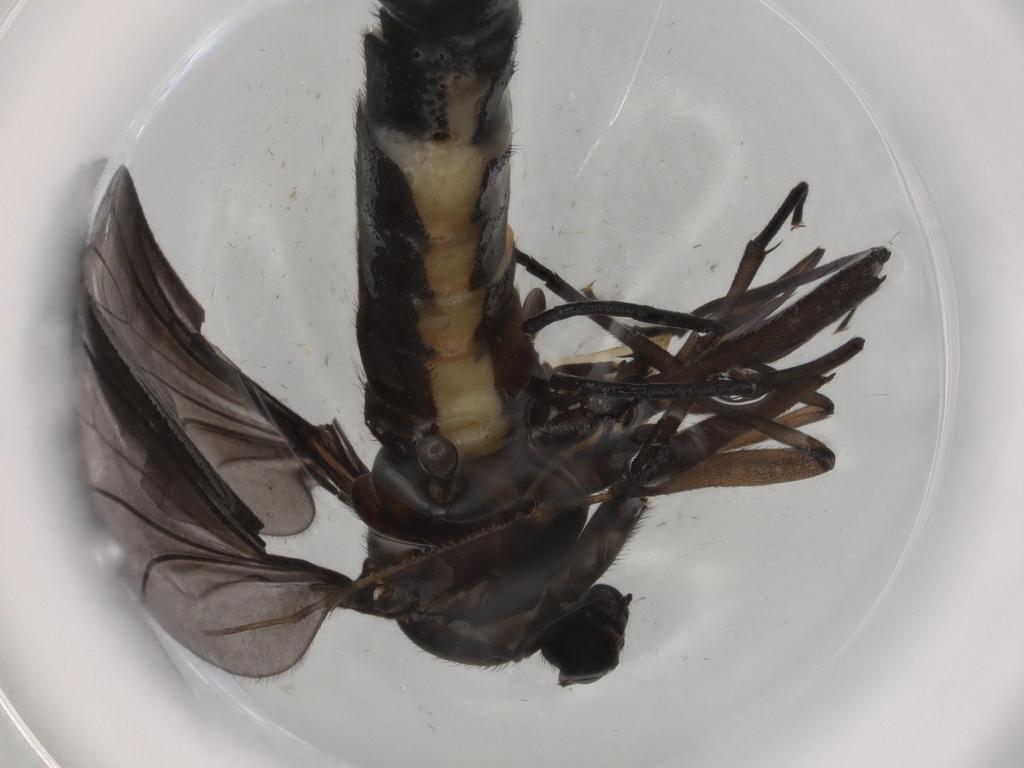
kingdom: Animalia
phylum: Arthropoda
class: Insecta
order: Diptera
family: Phoridae
